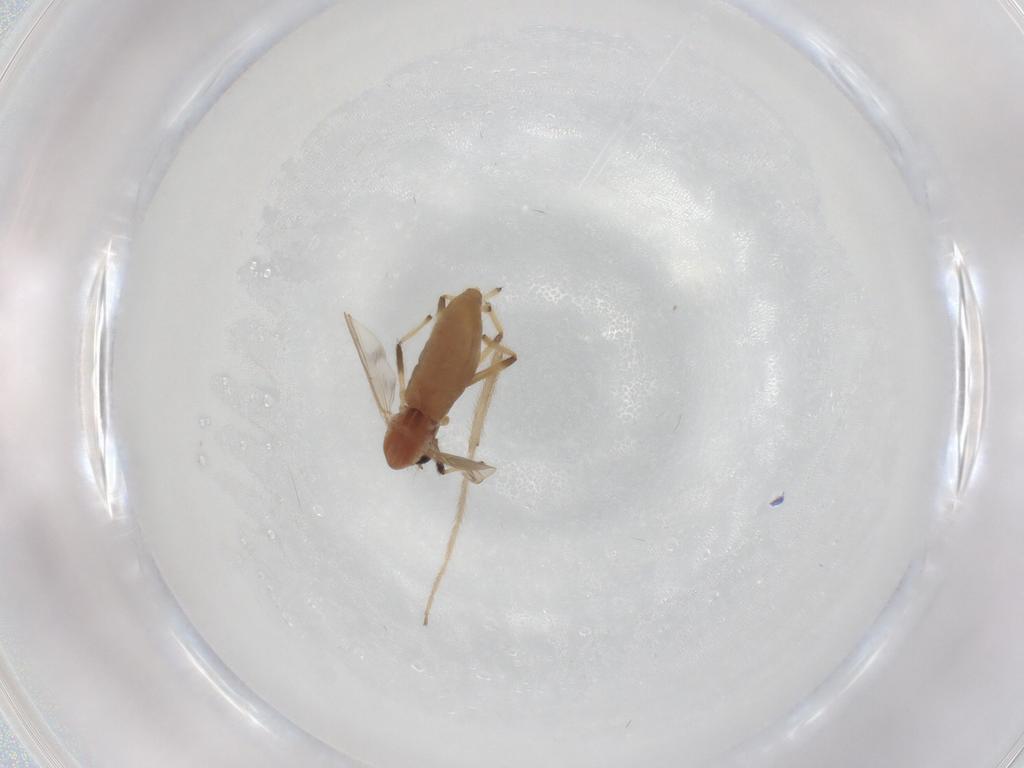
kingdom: Animalia
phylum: Arthropoda
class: Insecta
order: Diptera
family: Chironomidae
